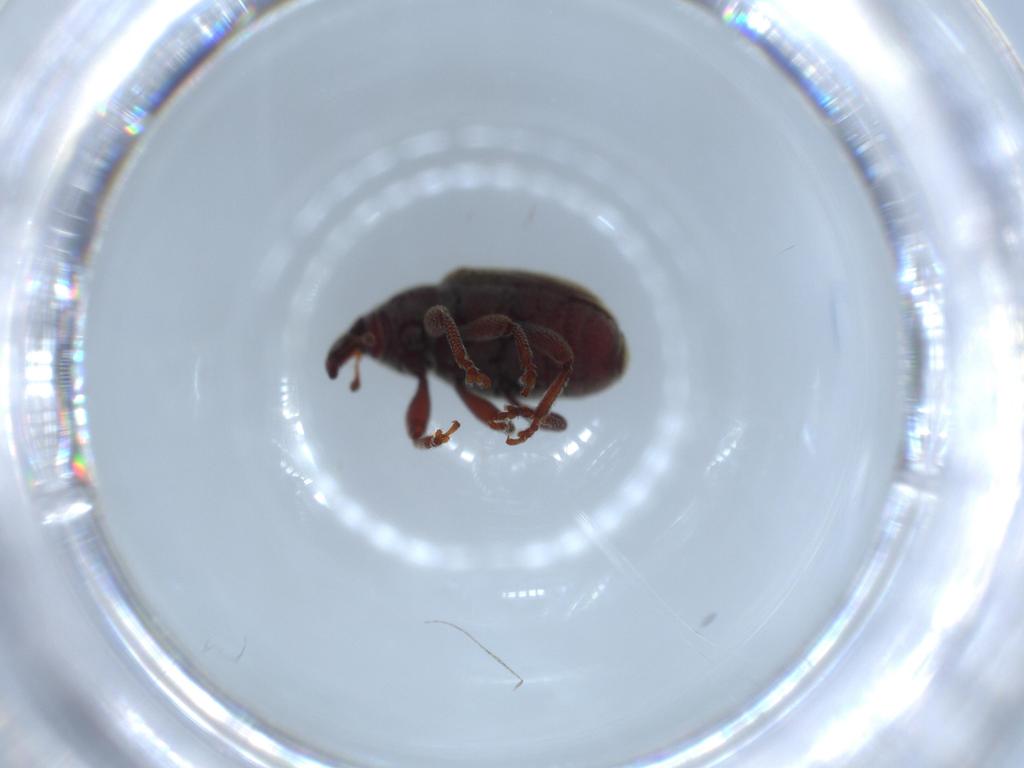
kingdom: Animalia
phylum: Arthropoda
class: Insecta
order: Coleoptera
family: Curculionidae
